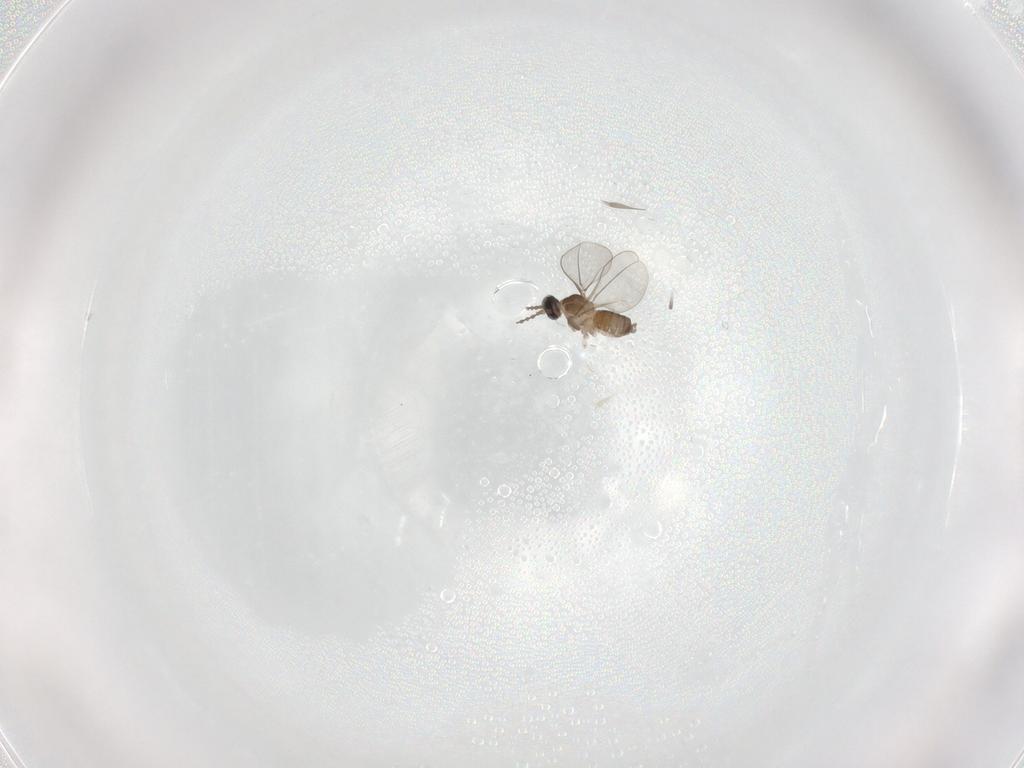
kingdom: Animalia
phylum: Arthropoda
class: Insecta
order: Diptera
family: Cecidomyiidae
